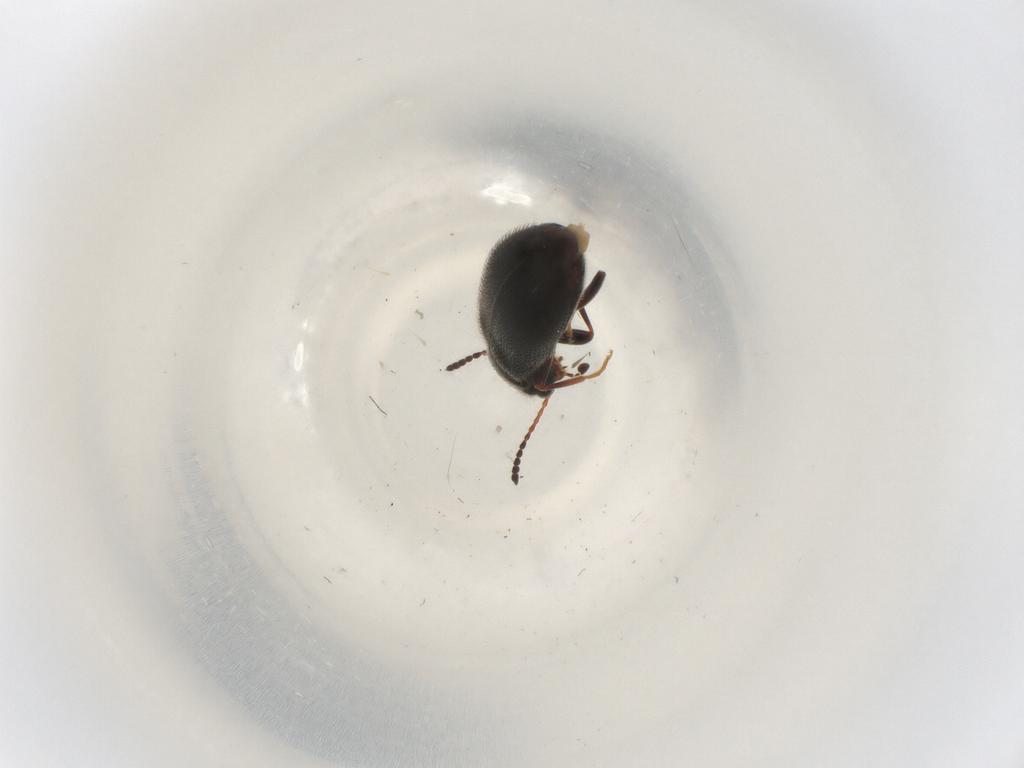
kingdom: Animalia
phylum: Arthropoda
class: Insecta
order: Coleoptera
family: Anthicidae
